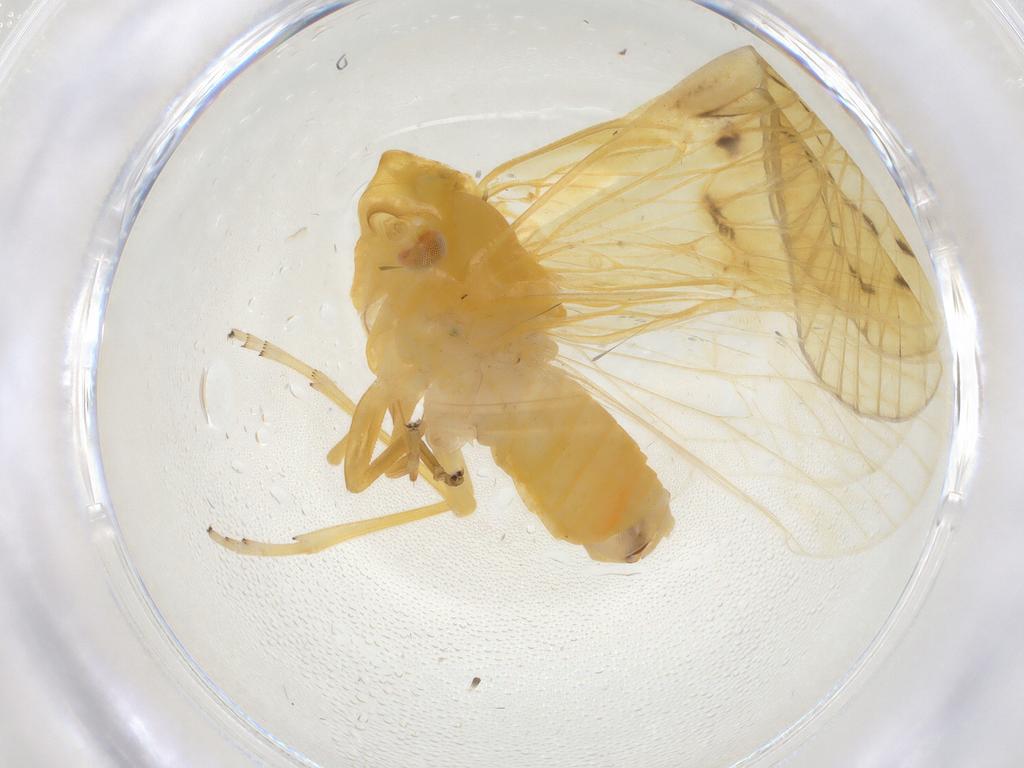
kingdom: Animalia
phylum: Arthropoda
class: Insecta
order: Hemiptera
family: Cixiidae
